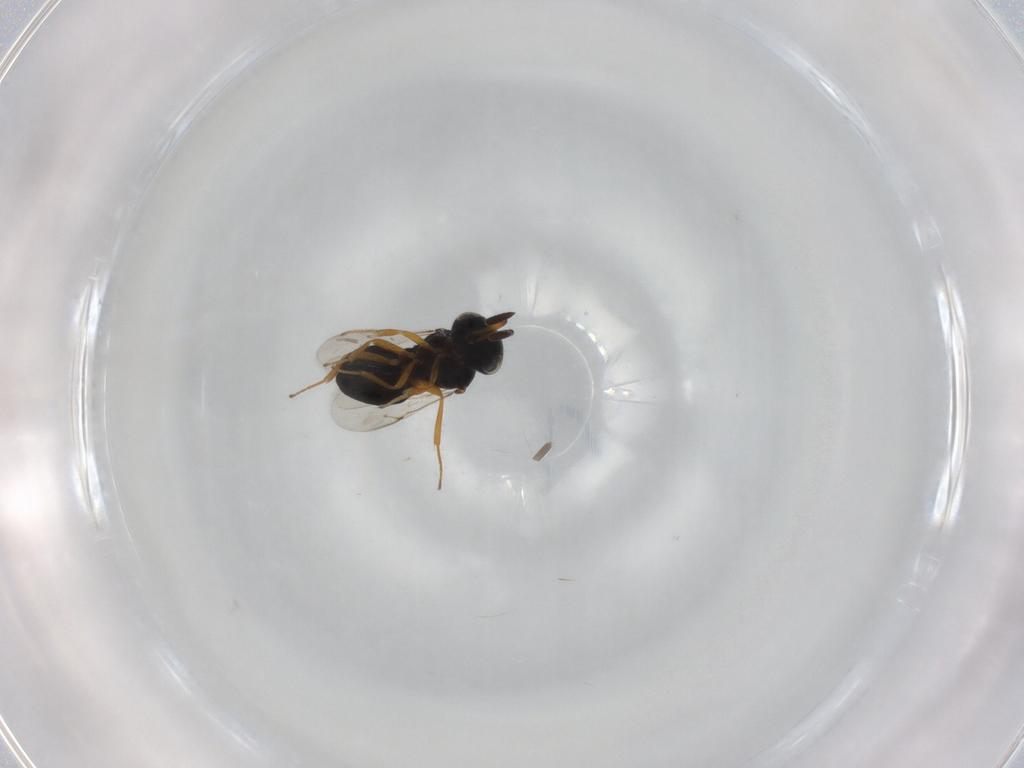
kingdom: Animalia
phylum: Arthropoda
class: Insecta
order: Hymenoptera
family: Scelionidae
